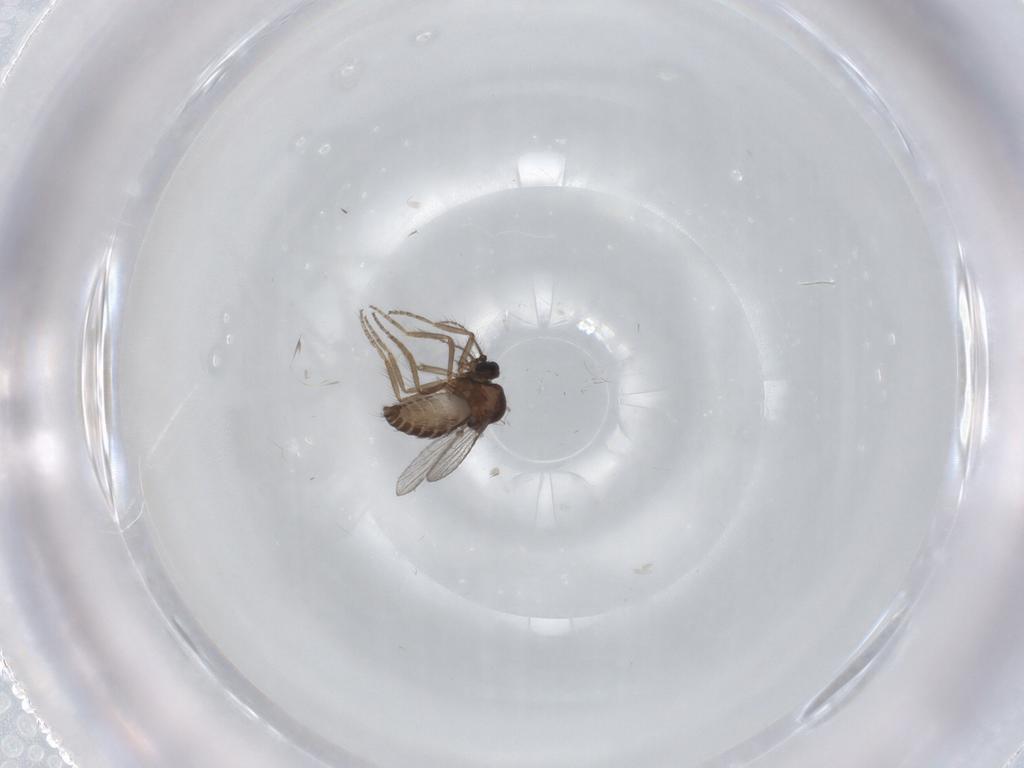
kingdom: Animalia
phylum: Arthropoda
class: Insecta
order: Diptera
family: Ceratopogonidae
